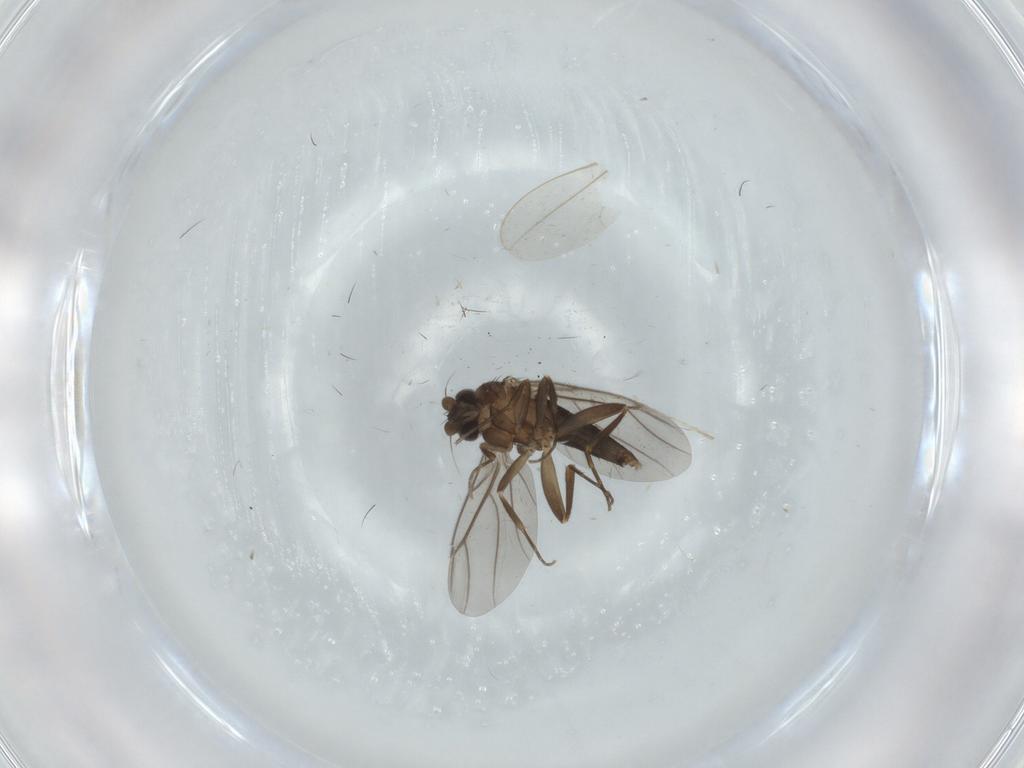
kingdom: Animalia
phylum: Arthropoda
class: Insecta
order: Diptera
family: Cecidomyiidae
